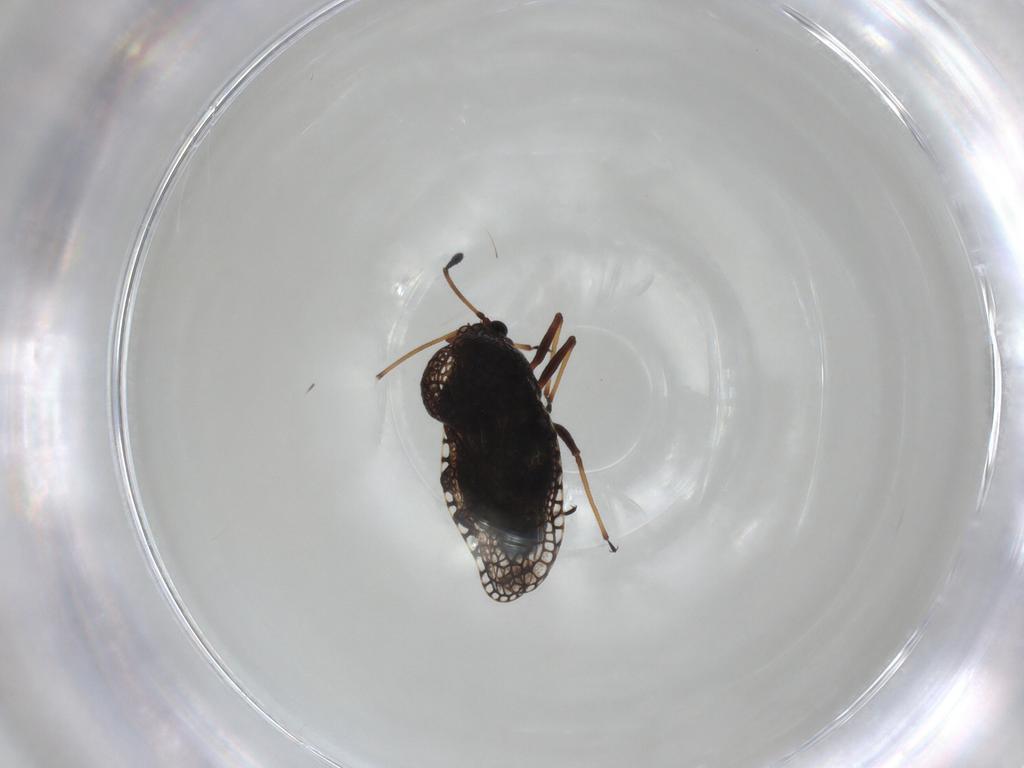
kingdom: Animalia
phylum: Arthropoda
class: Insecta
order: Hemiptera
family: Tingidae
